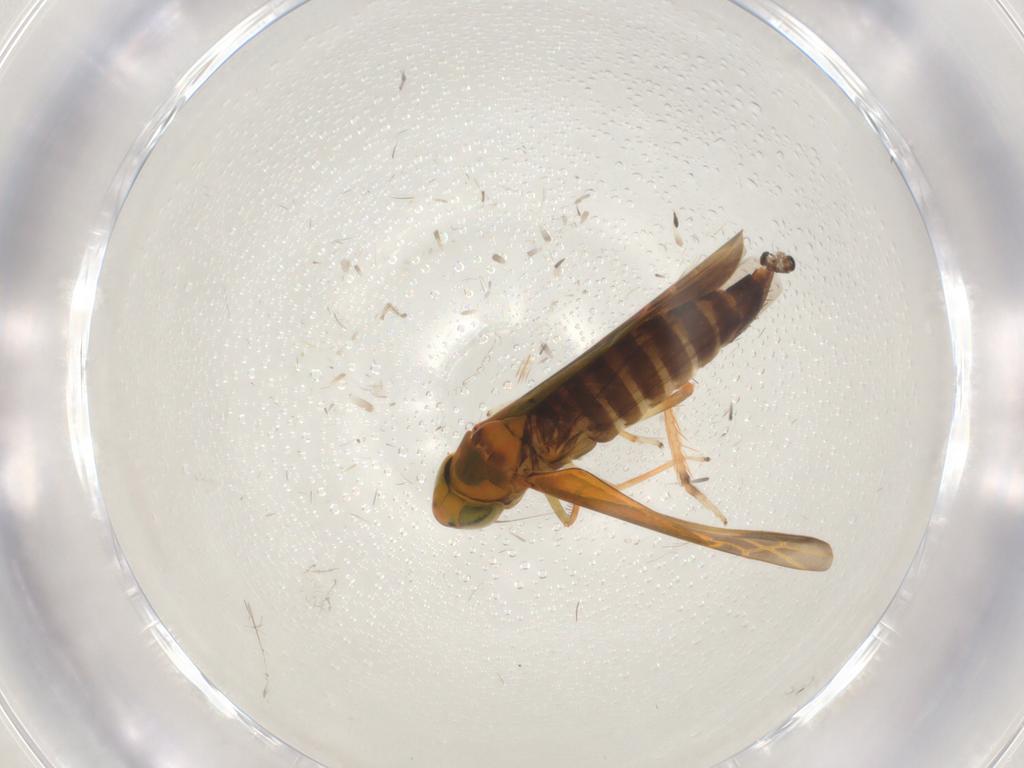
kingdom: Animalia
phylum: Arthropoda
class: Insecta
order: Hemiptera
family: Cicadellidae
